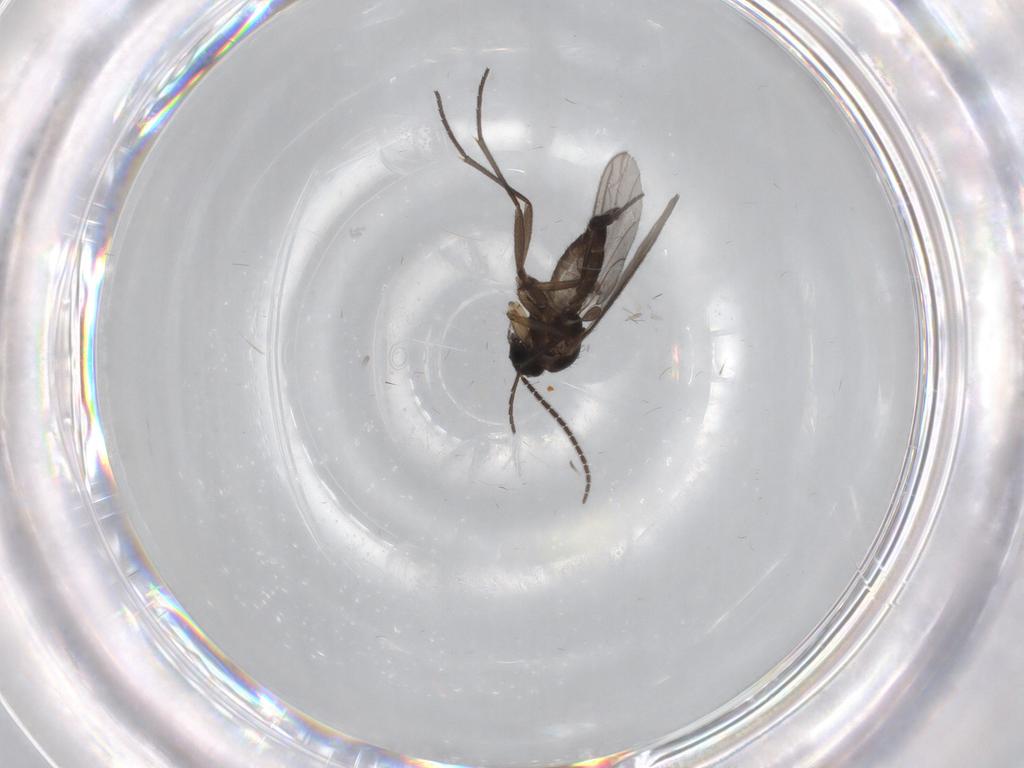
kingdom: Animalia
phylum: Arthropoda
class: Insecta
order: Diptera
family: Sciaridae
